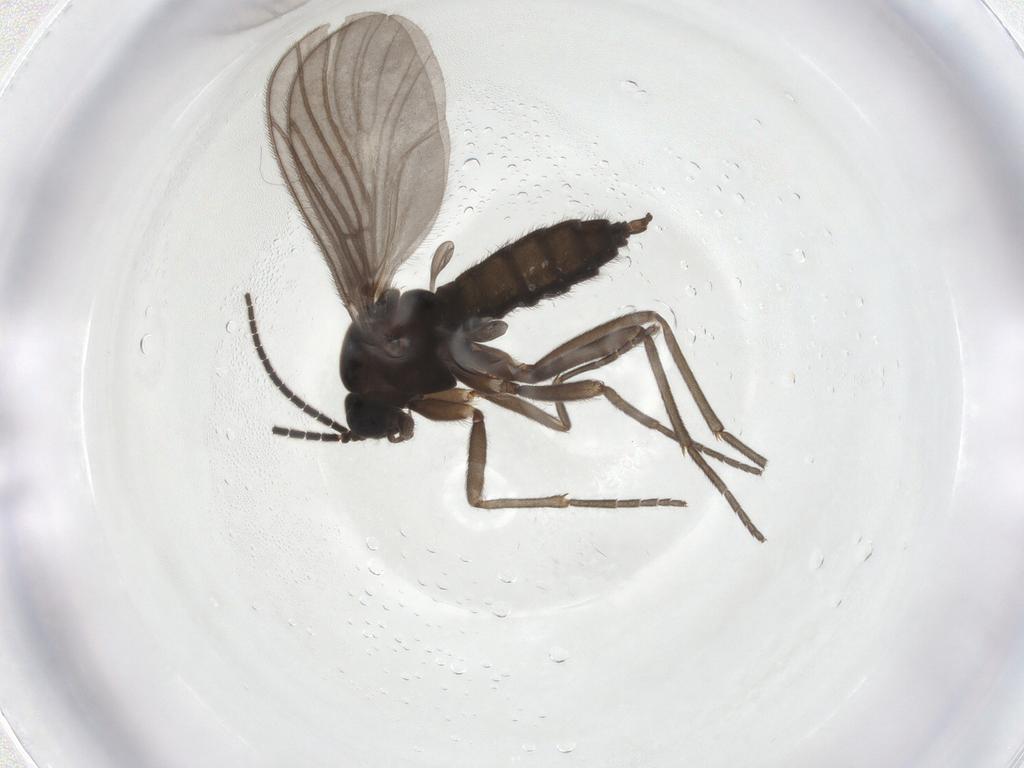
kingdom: Animalia
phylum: Arthropoda
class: Insecta
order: Diptera
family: Sciaridae
